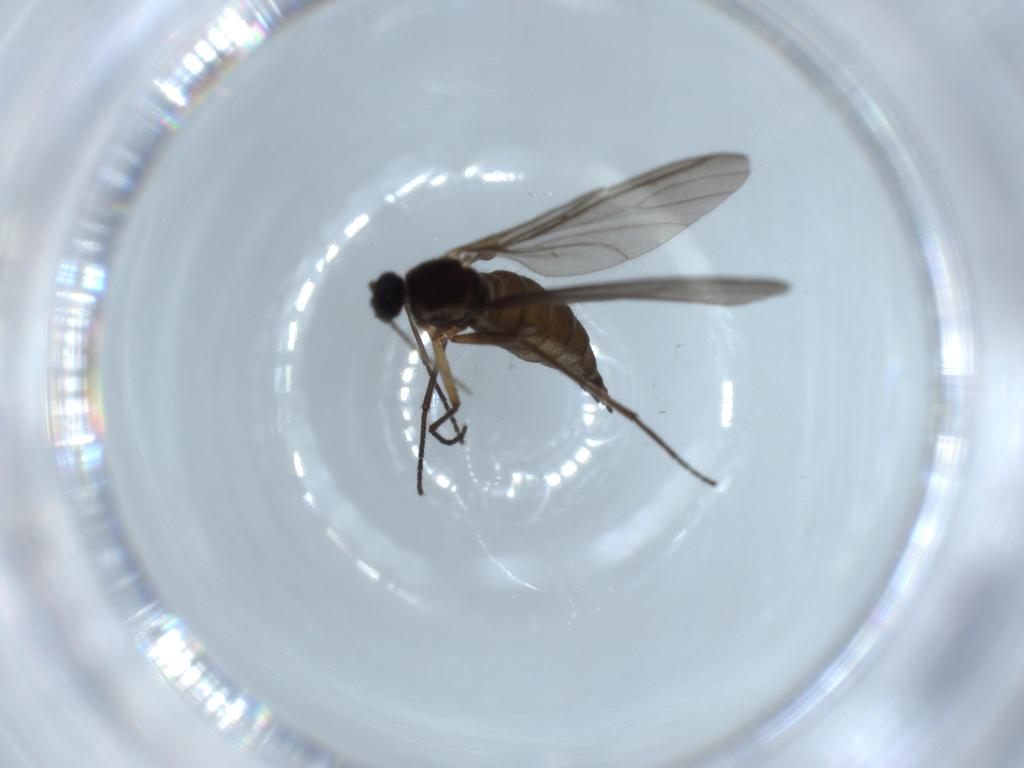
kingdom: Animalia
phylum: Arthropoda
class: Insecta
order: Diptera
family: Sciaridae
